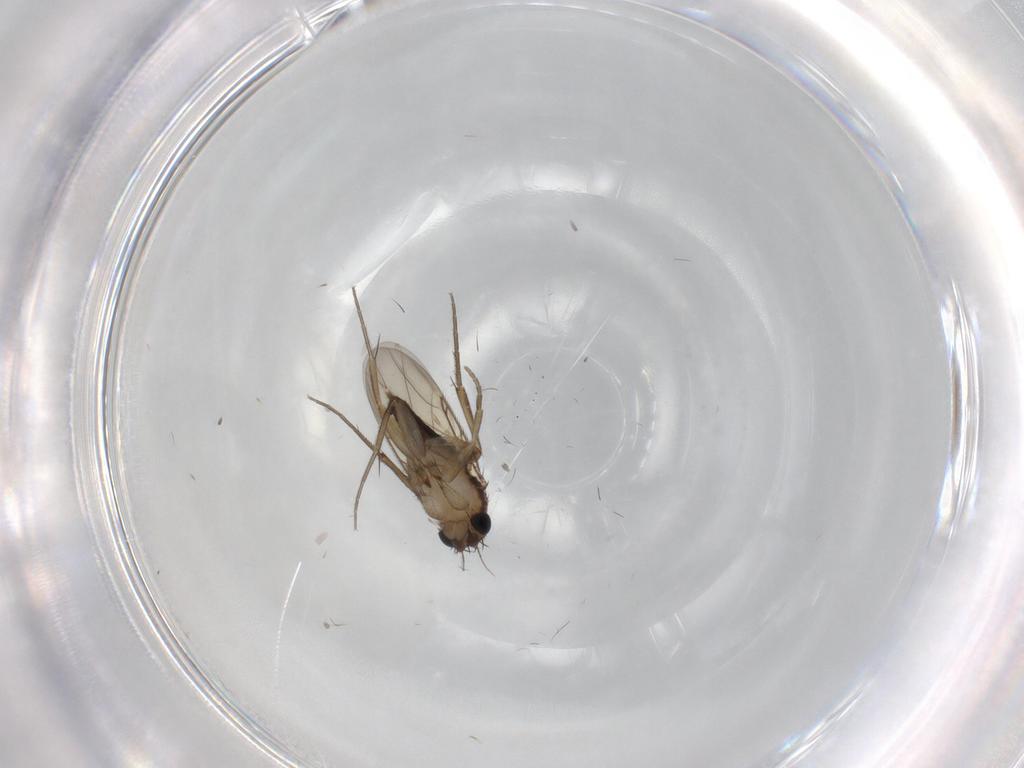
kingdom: Animalia
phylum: Arthropoda
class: Insecta
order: Diptera
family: Phoridae
